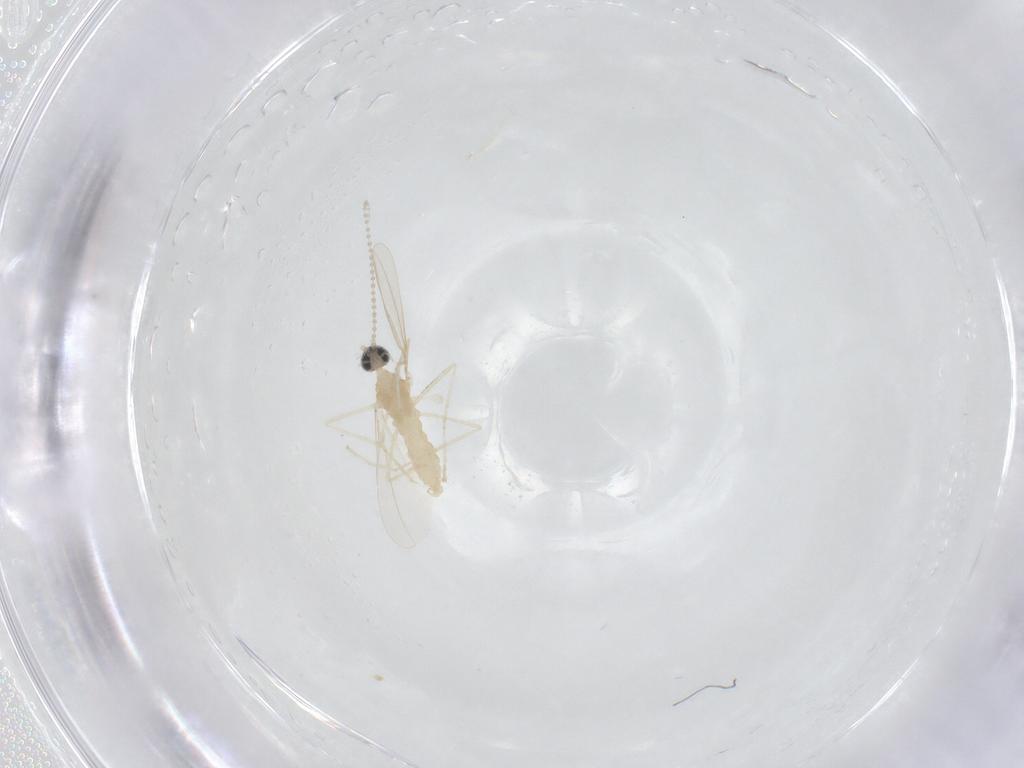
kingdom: Animalia
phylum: Arthropoda
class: Insecta
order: Diptera
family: Cecidomyiidae
